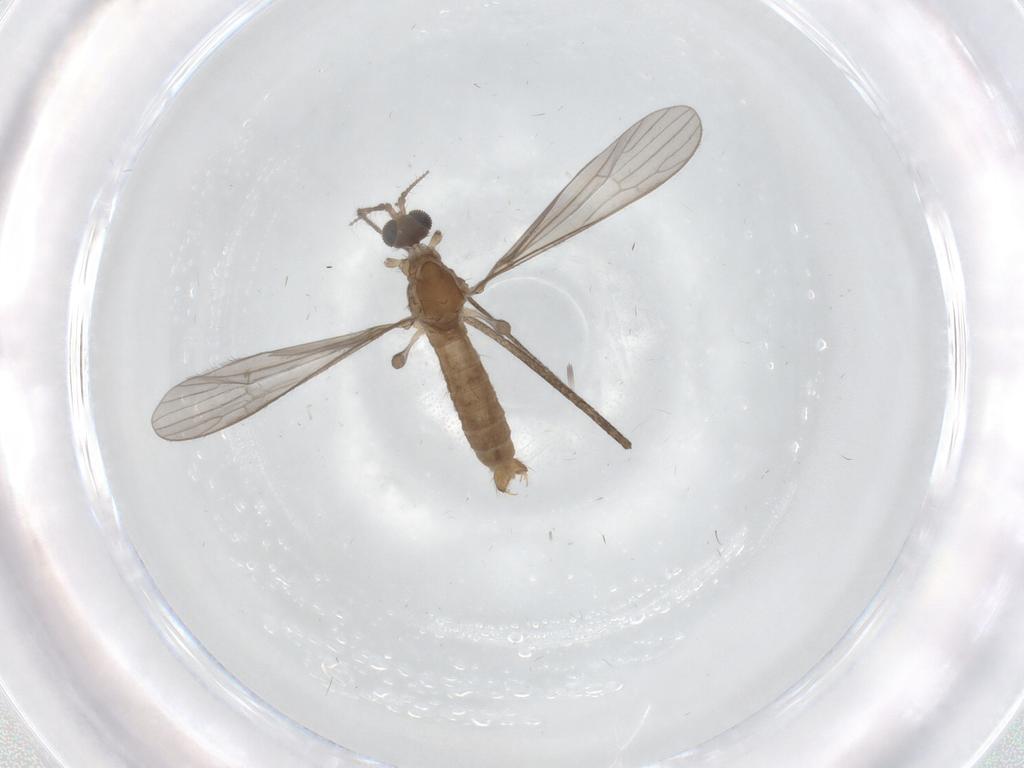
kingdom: Animalia
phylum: Arthropoda
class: Insecta
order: Diptera
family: Limoniidae
